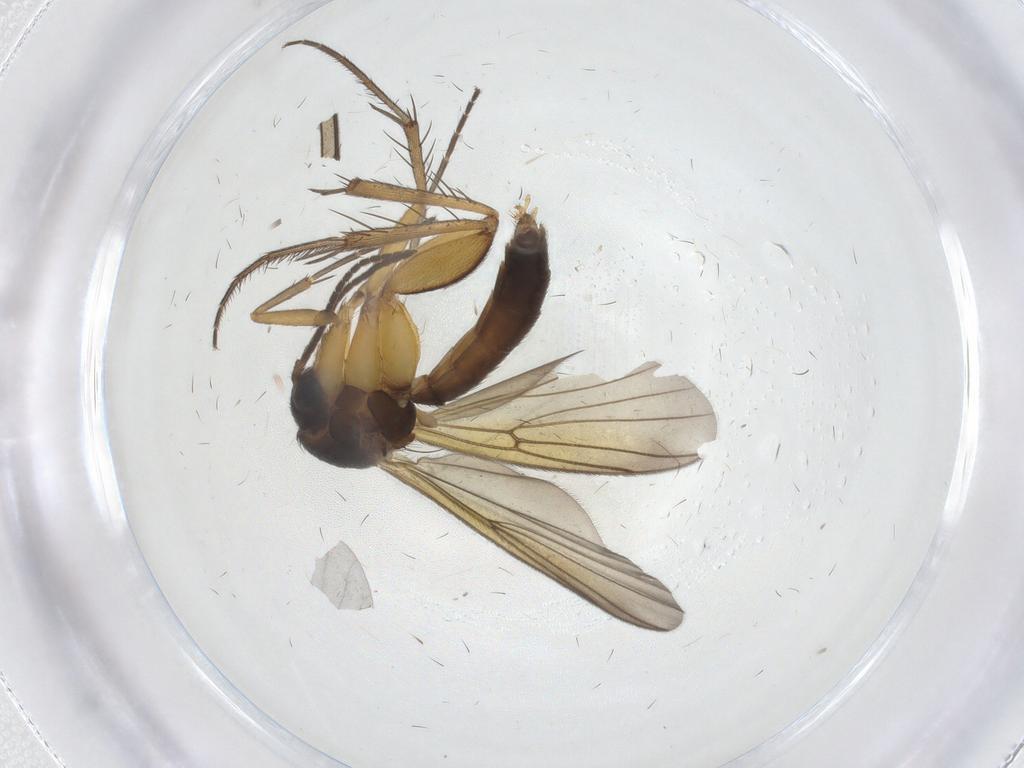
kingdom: Animalia
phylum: Arthropoda
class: Insecta
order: Diptera
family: Mycetophilidae
